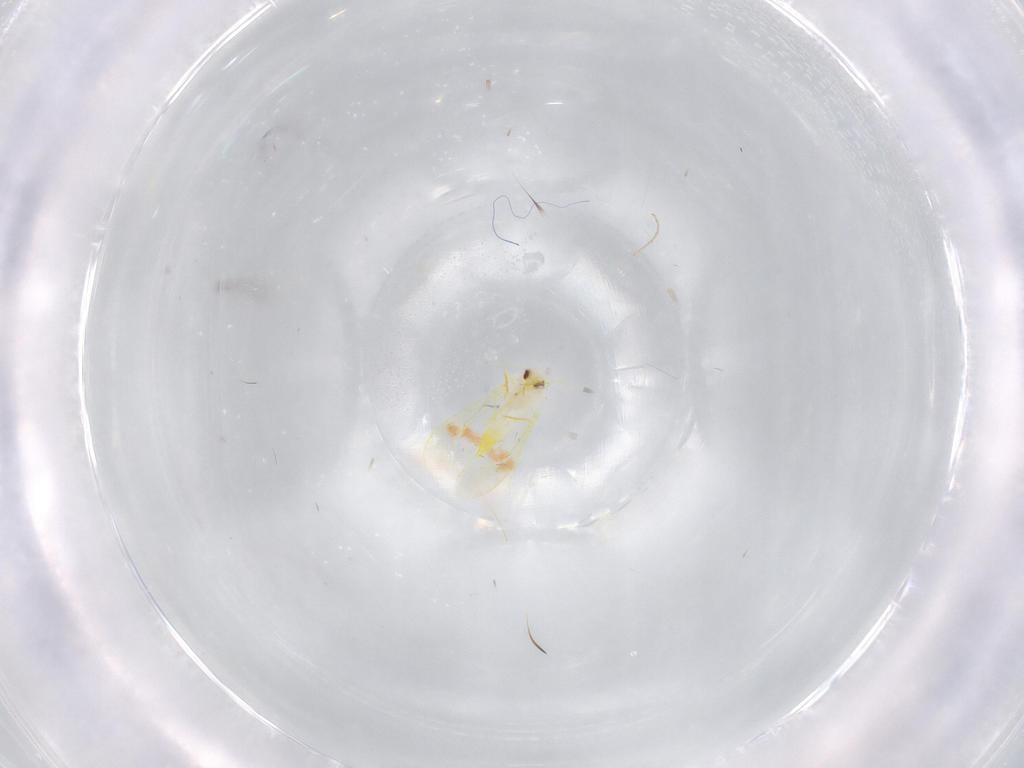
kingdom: Animalia
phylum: Arthropoda
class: Insecta
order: Hemiptera
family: Aleyrodidae
